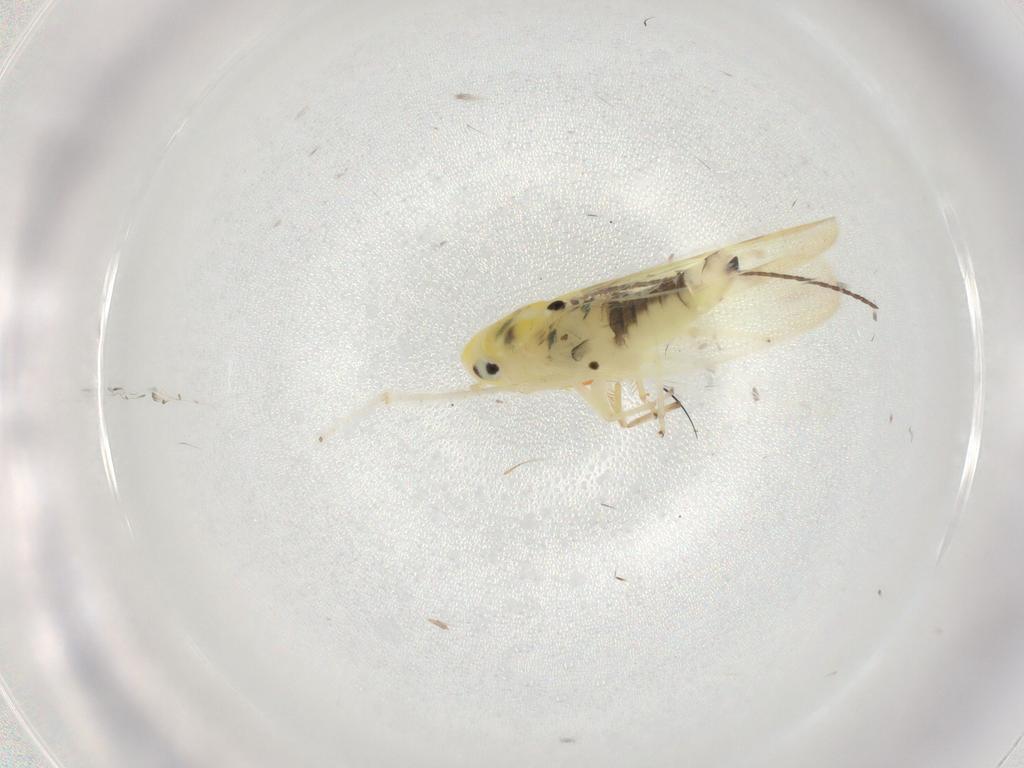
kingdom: Animalia
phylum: Arthropoda
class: Insecta
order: Hemiptera
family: Cicadellidae
